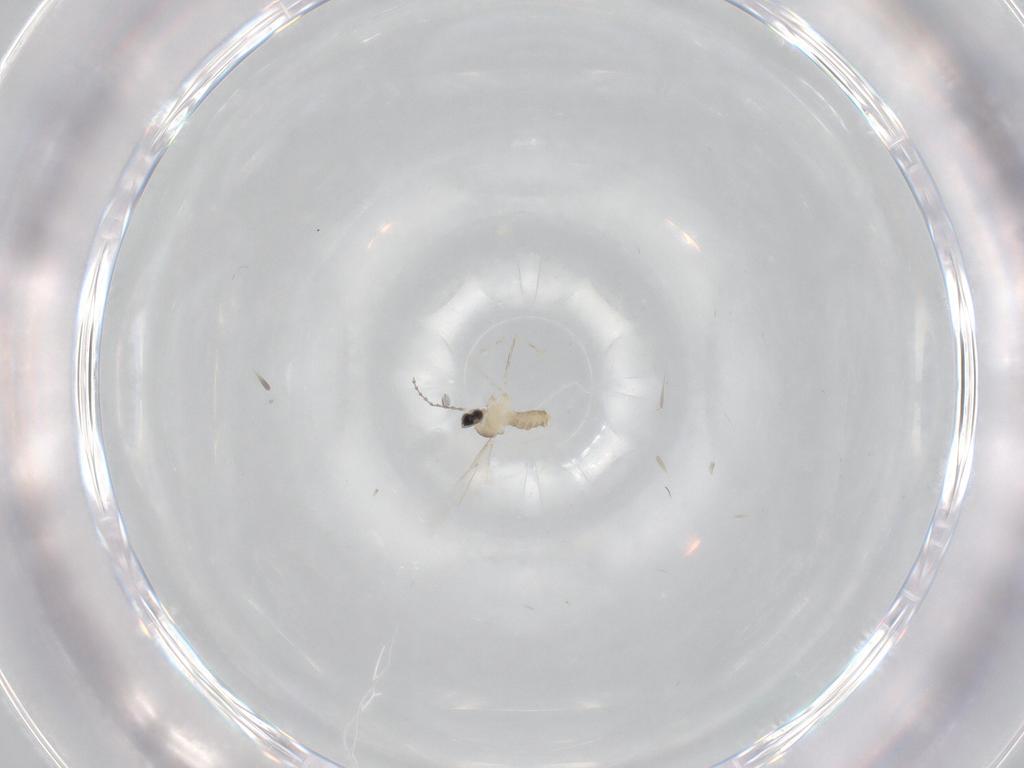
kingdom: Animalia
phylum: Arthropoda
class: Insecta
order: Diptera
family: Cecidomyiidae
